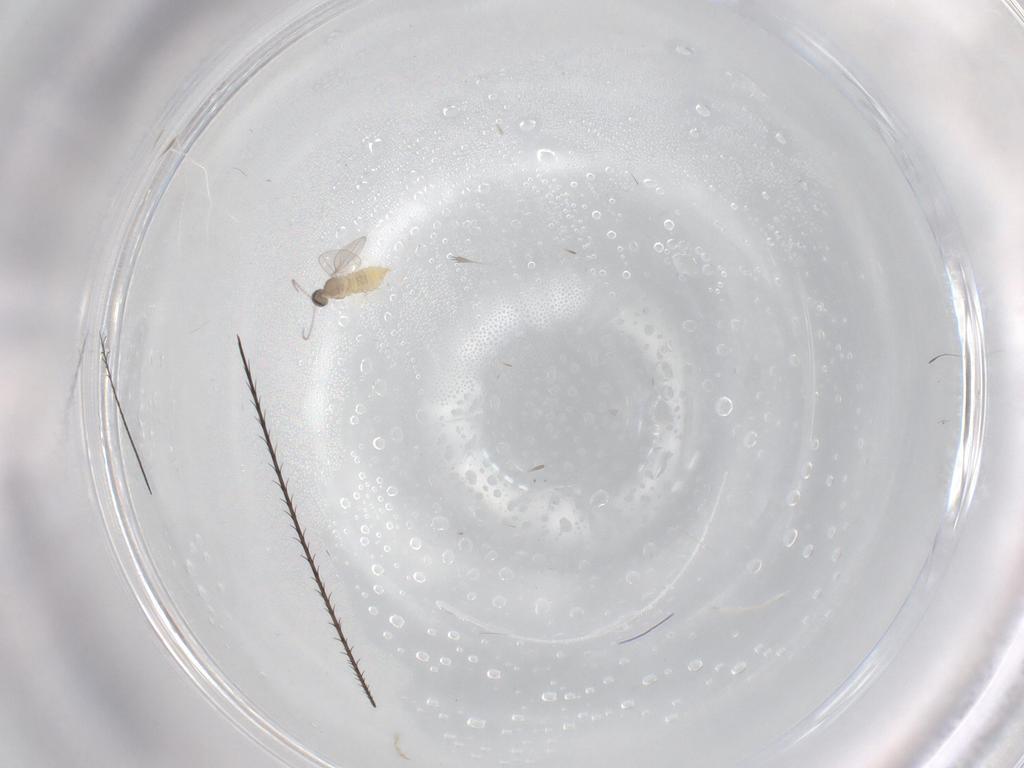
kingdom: Animalia
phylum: Arthropoda
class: Insecta
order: Diptera
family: Cecidomyiidae
